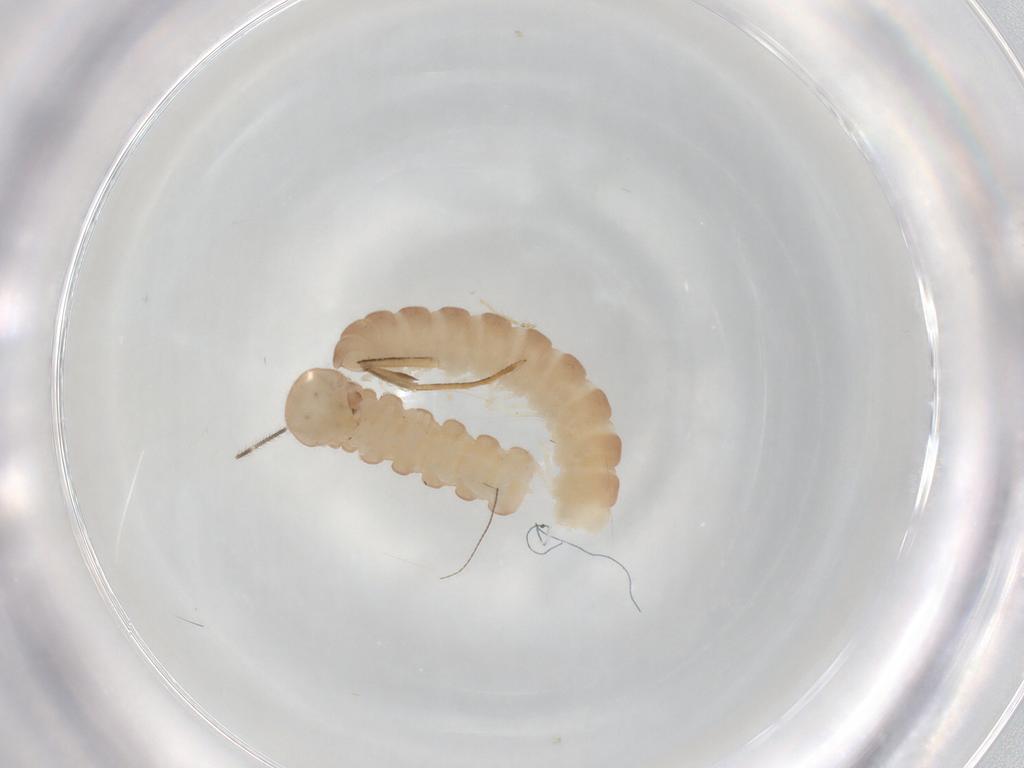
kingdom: Animalia
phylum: Arthropoda
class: Diplopoda
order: Polydesmida
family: Haplodesmidae
